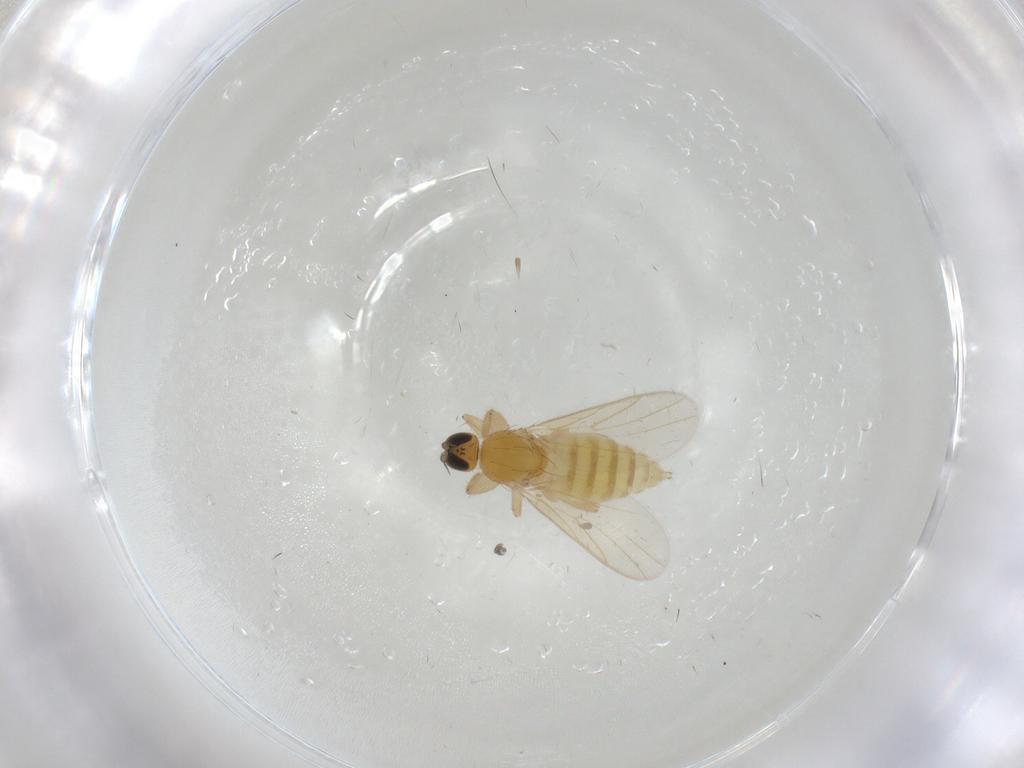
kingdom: Animalia
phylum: Arthropoda
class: Insecta
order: Diptera
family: Hybotidae
